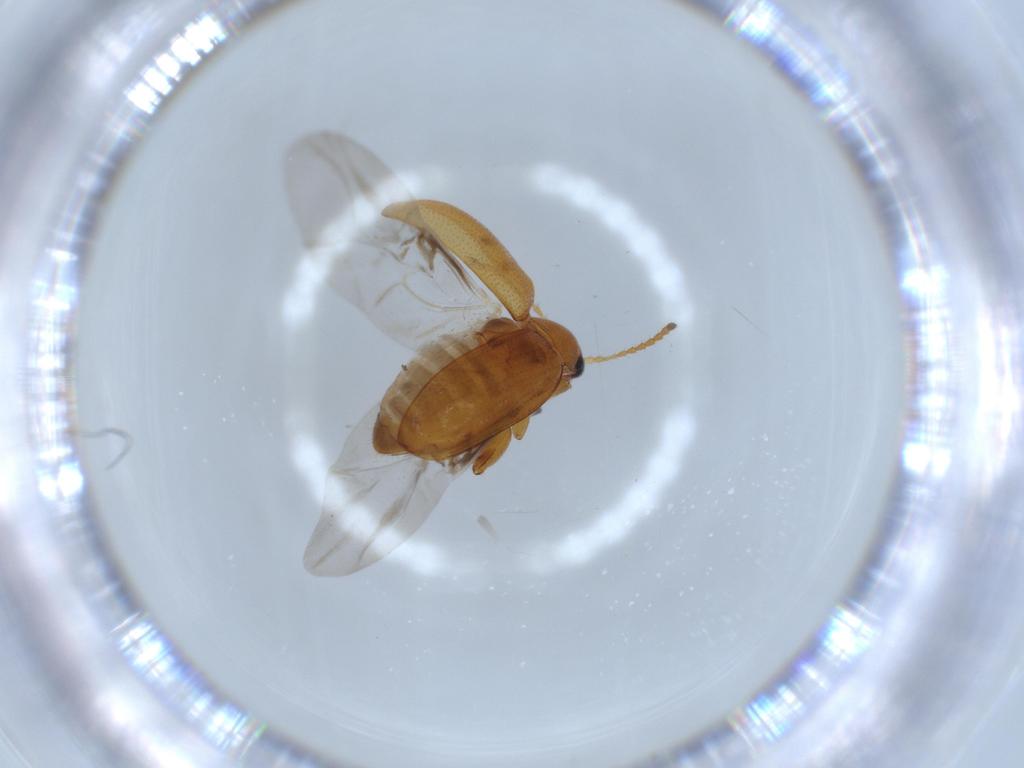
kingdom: Animalia
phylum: Arthropoda
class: Insecta
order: Coleoptera
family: Chrysomelidae
